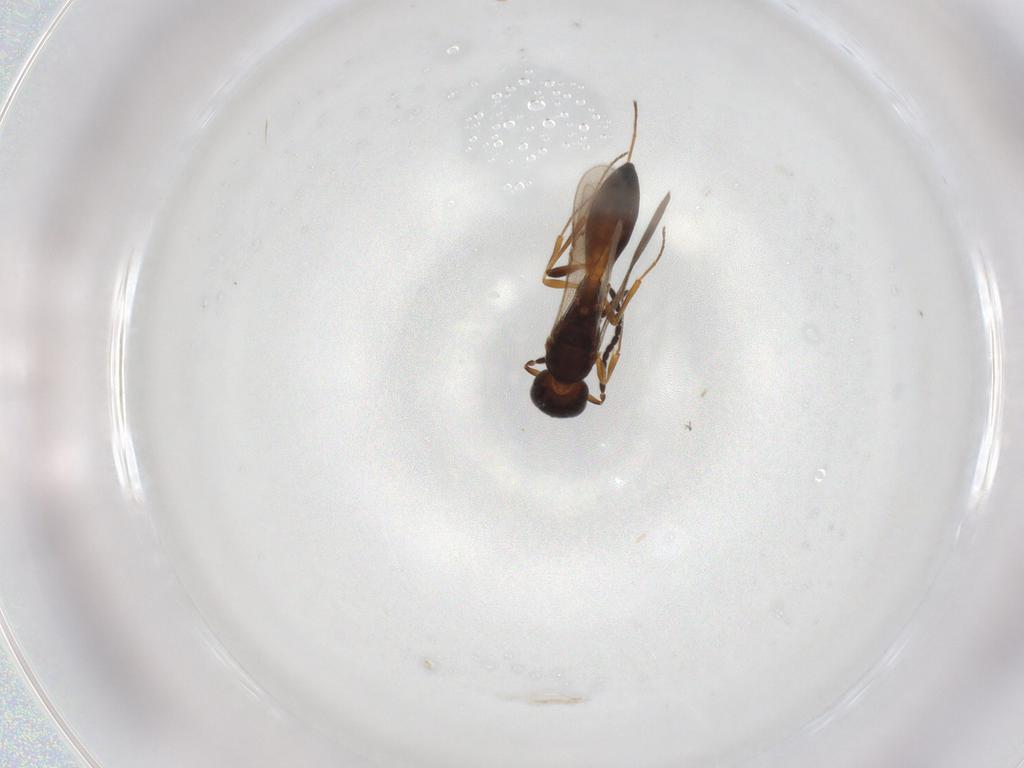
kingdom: Animalia
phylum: Arthropoda
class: Insecta
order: Hymenoptera
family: Scelionidae
